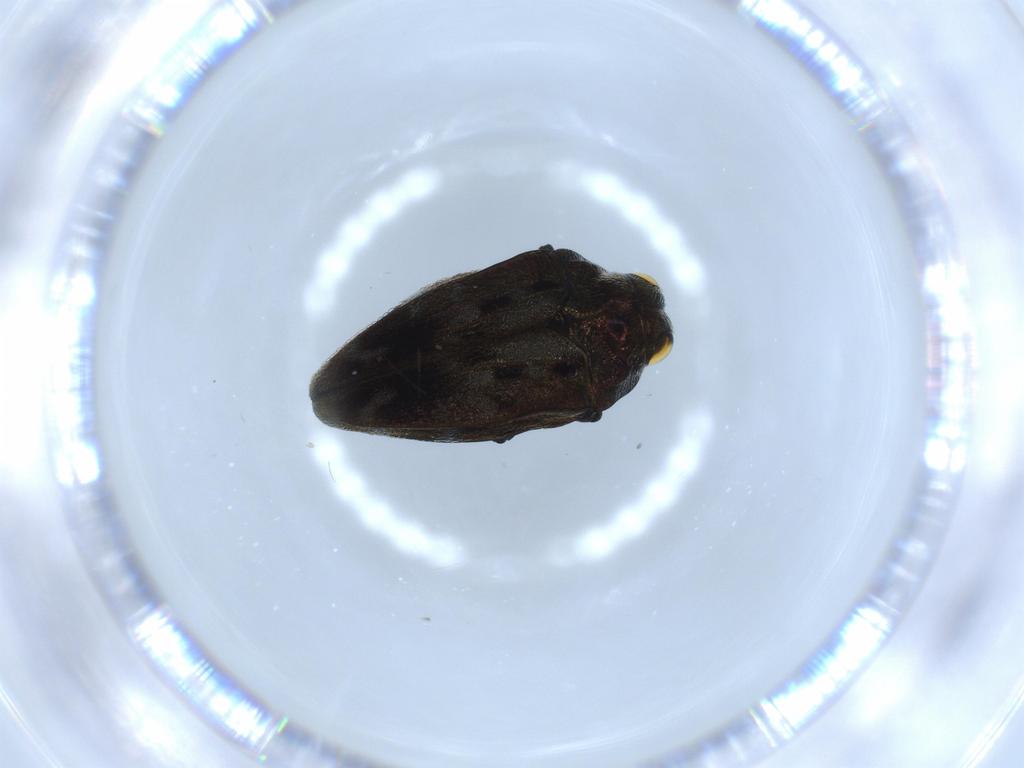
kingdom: Animalia
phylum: Arthropoda
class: Insecta
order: Coleoptera
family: Buprestidae
